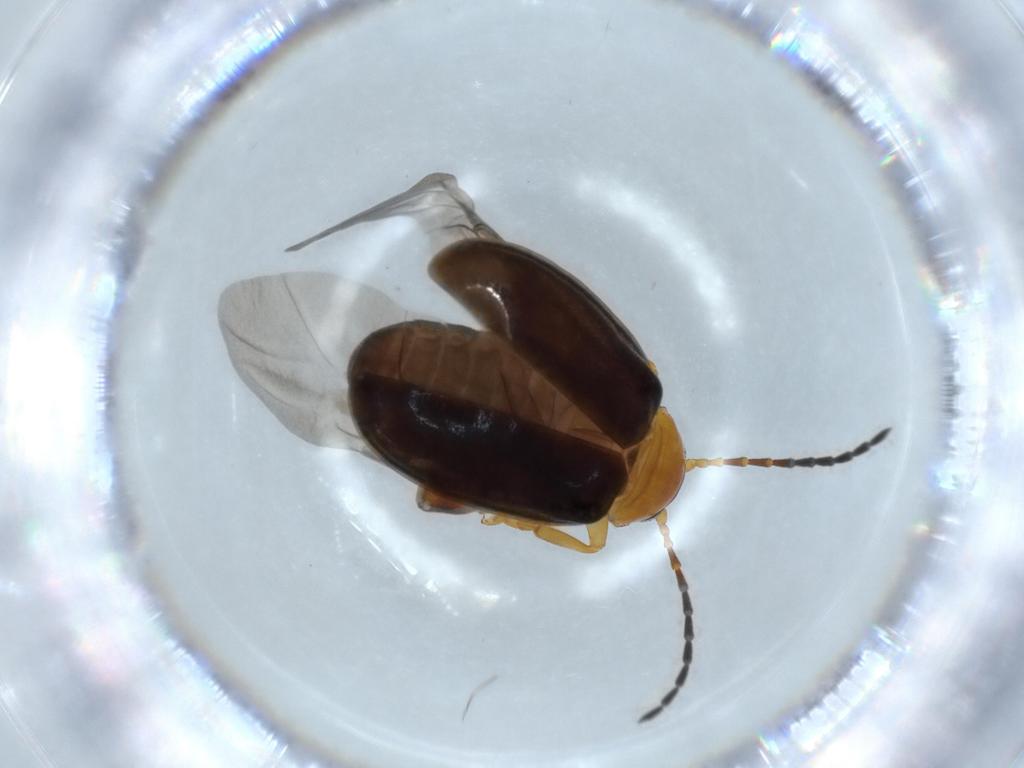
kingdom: Animalia
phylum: Arthropoda
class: Insecta
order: Coleoptera
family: Chrysomelidae
